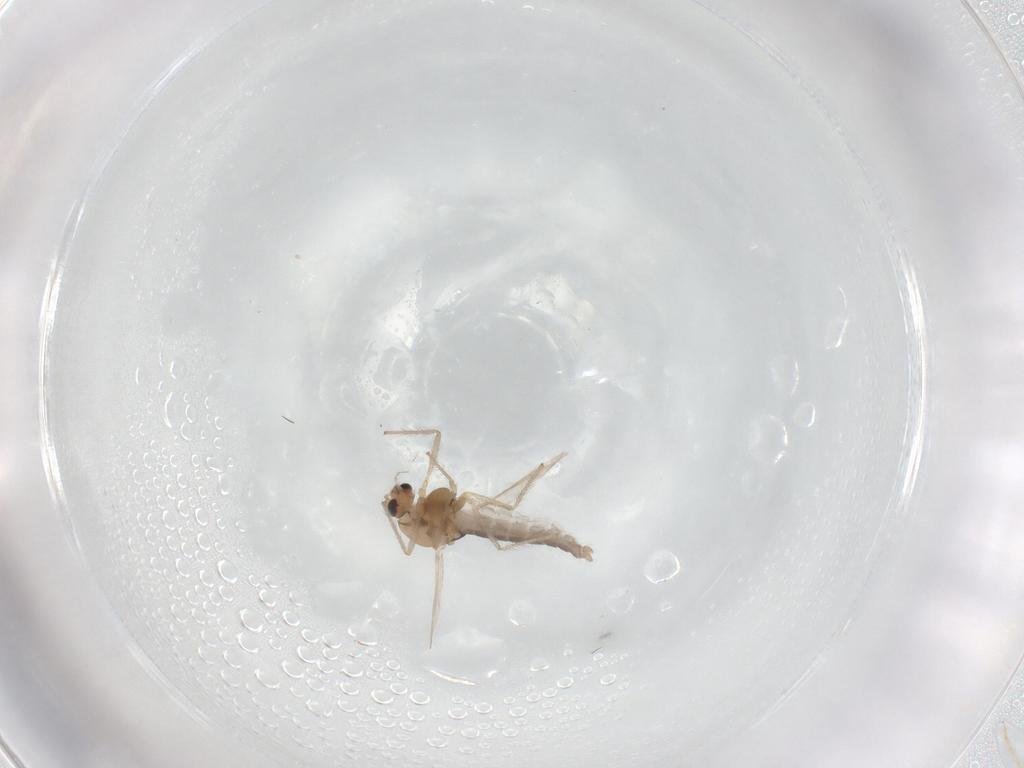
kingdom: Animalia
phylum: Arthropoda
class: Insecta
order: Diptera
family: Chironomidae
